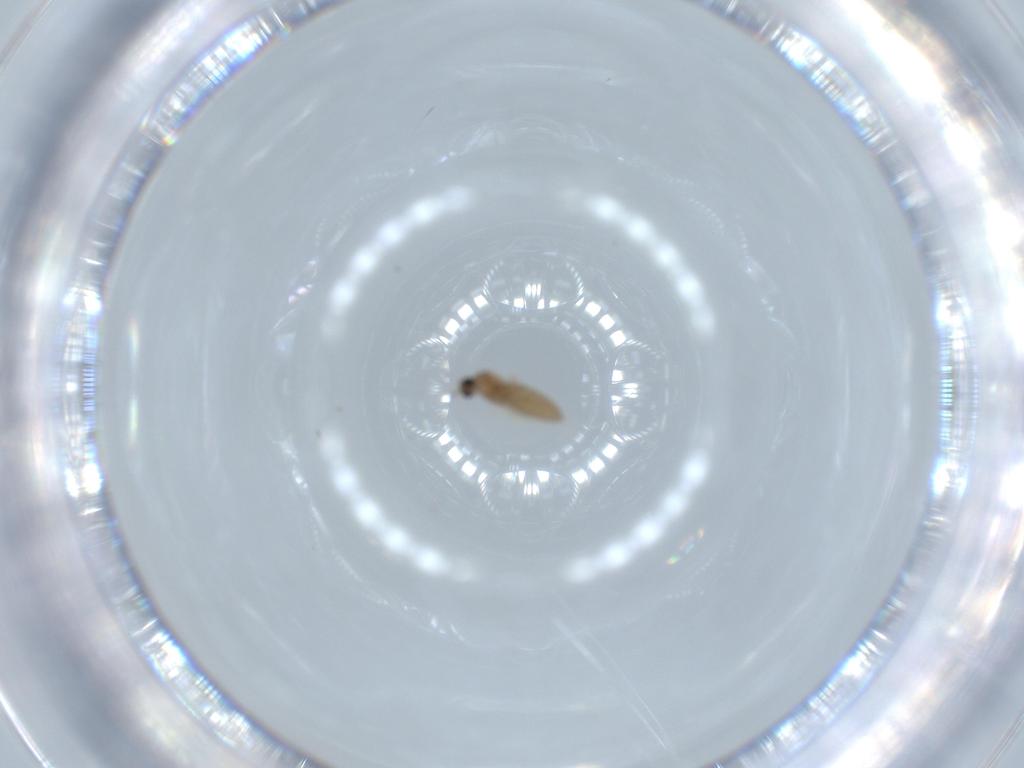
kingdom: Animalia
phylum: Arthropoda
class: Insecta
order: Diptera
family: Cecidomyiidae
